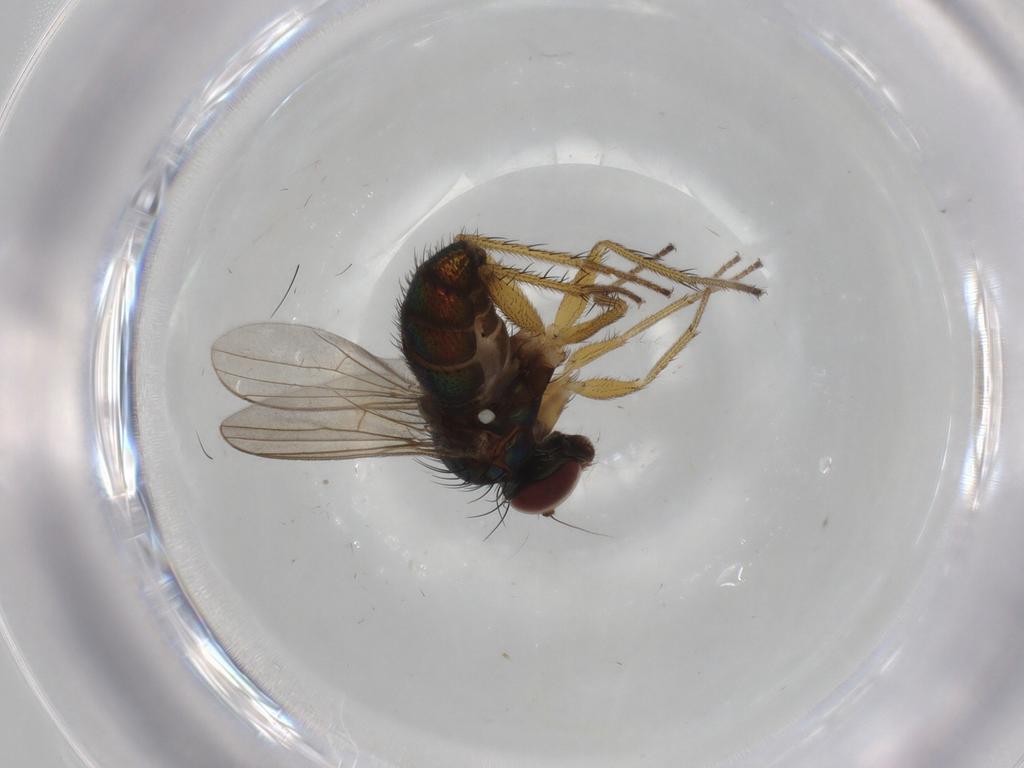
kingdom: Animalia
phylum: Arthropoda
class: Insecta
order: Diptera
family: Dolichopodidae
